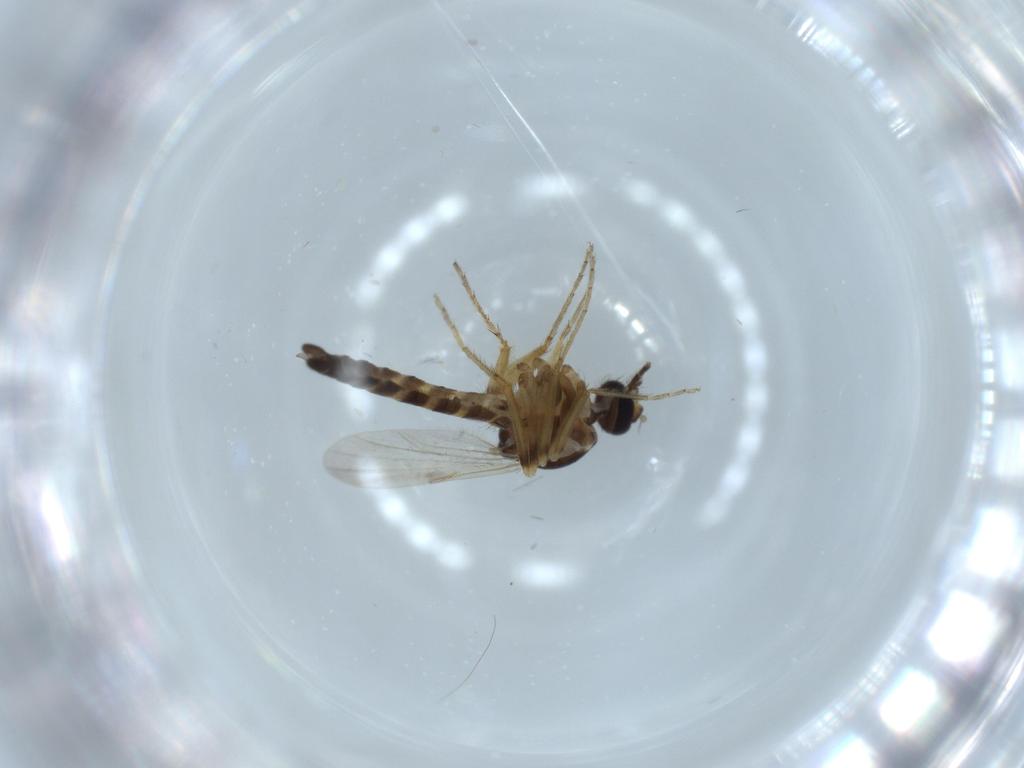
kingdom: Animalia
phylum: Arthropoda
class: Insecta
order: Diptera
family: Ceratopogonidae
